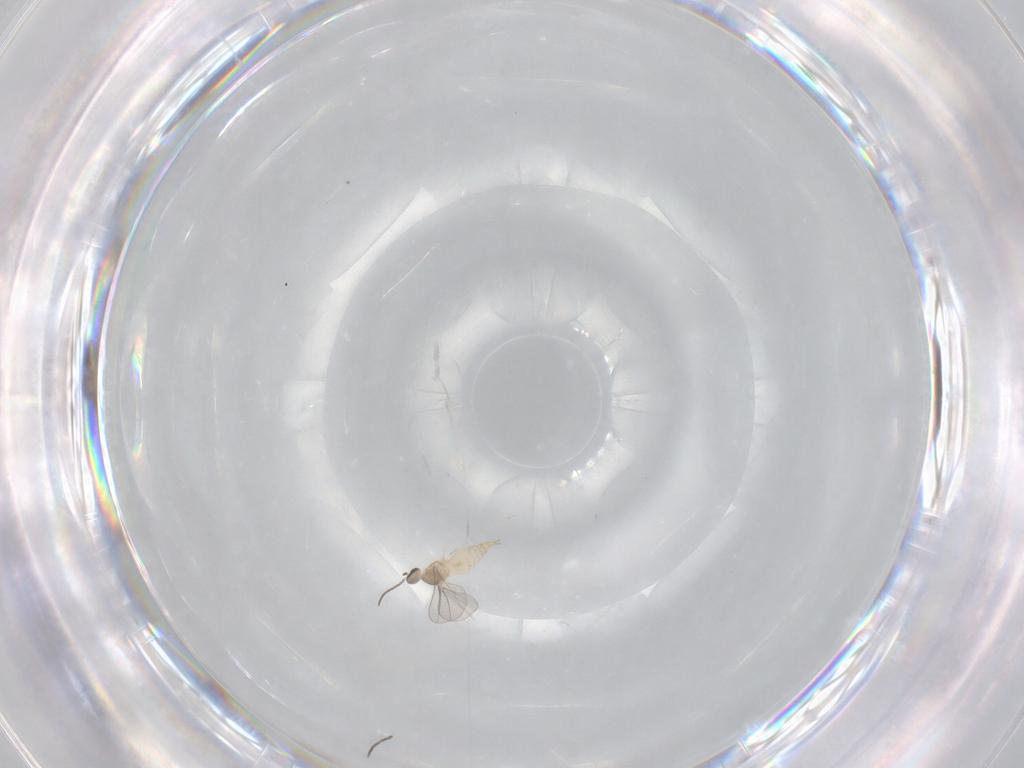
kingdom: Animalia
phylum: Arthropoda
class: Insecta
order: Diptera
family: Cecidomyiidae
